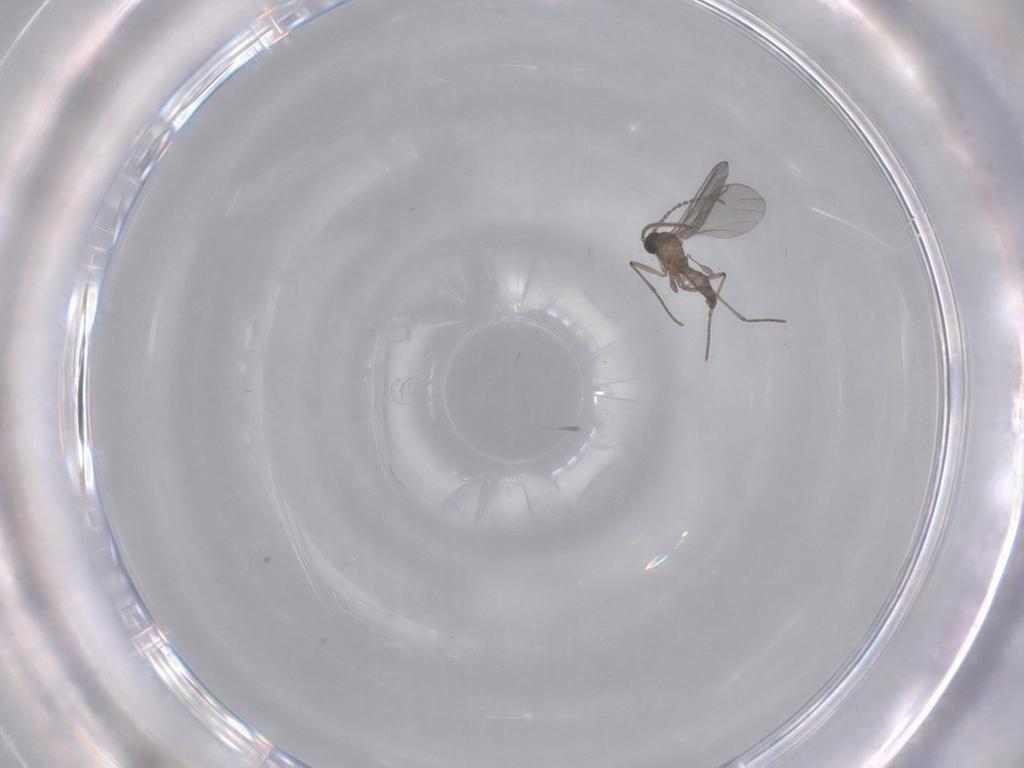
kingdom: Animalia
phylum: Arthropoda
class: Insecta
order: Diptera
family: Sciaridae
